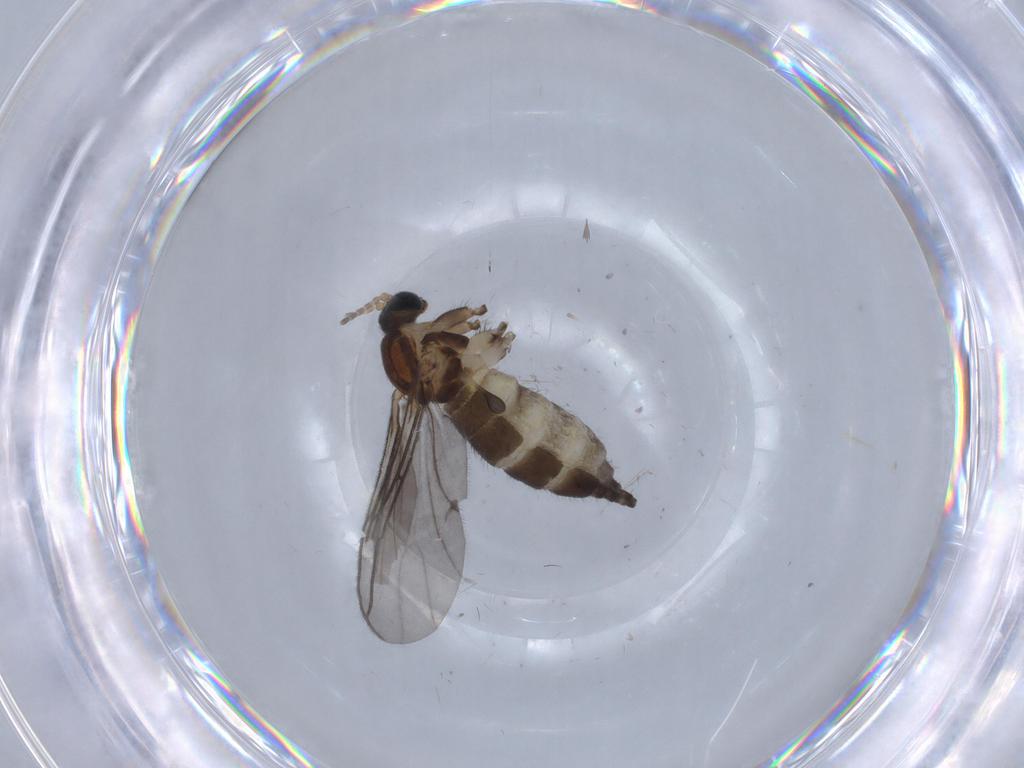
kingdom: Animalia
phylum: Arthropoda
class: Insecta
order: Diptera
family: Sciaridae
